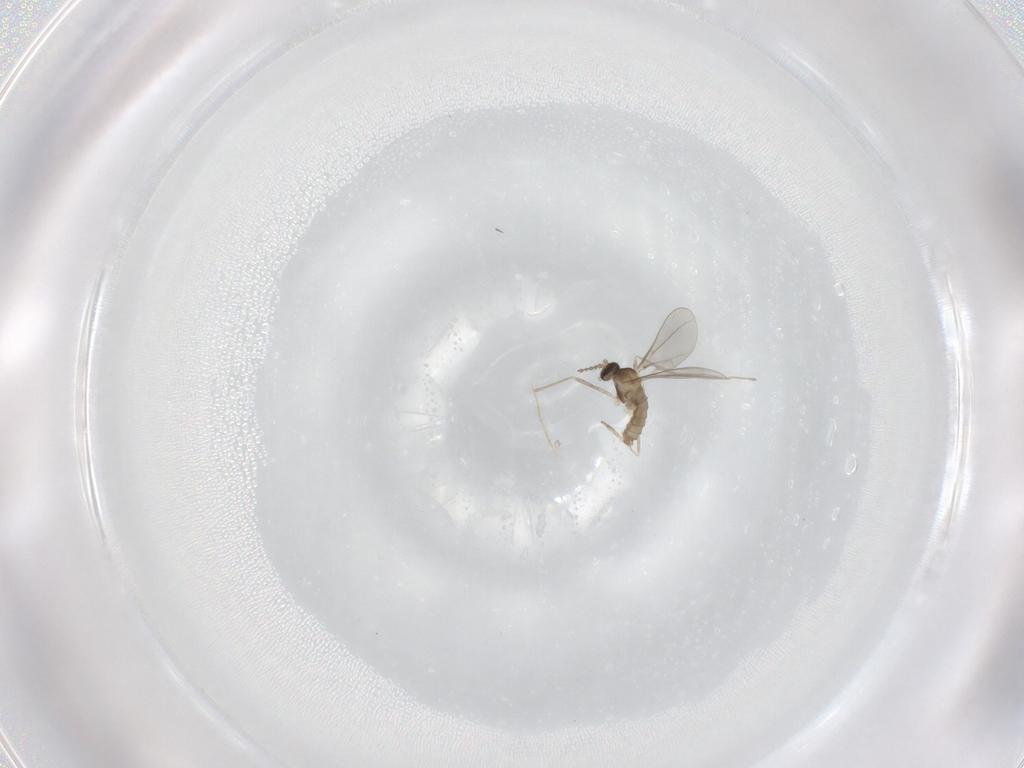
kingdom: Animalia
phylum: Arthropoda
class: Insecta
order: Diptera
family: Cecidomyiidae
